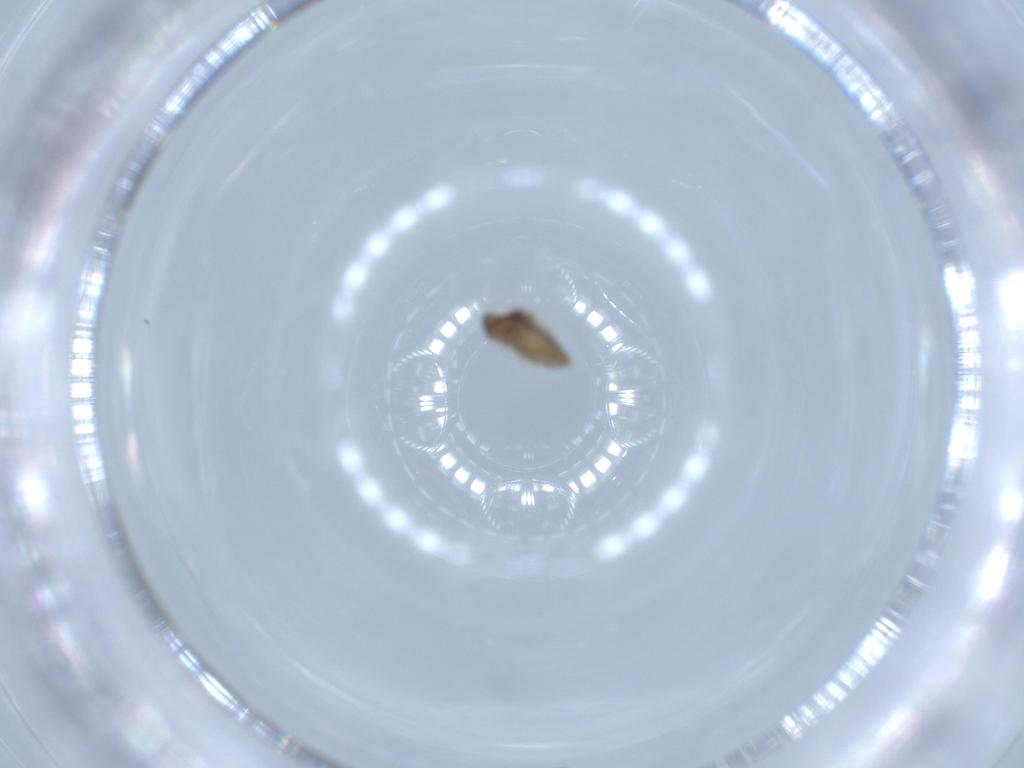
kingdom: Animalia
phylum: Arthropoda
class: Insecta
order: Diptera
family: Cecidomyiidae
